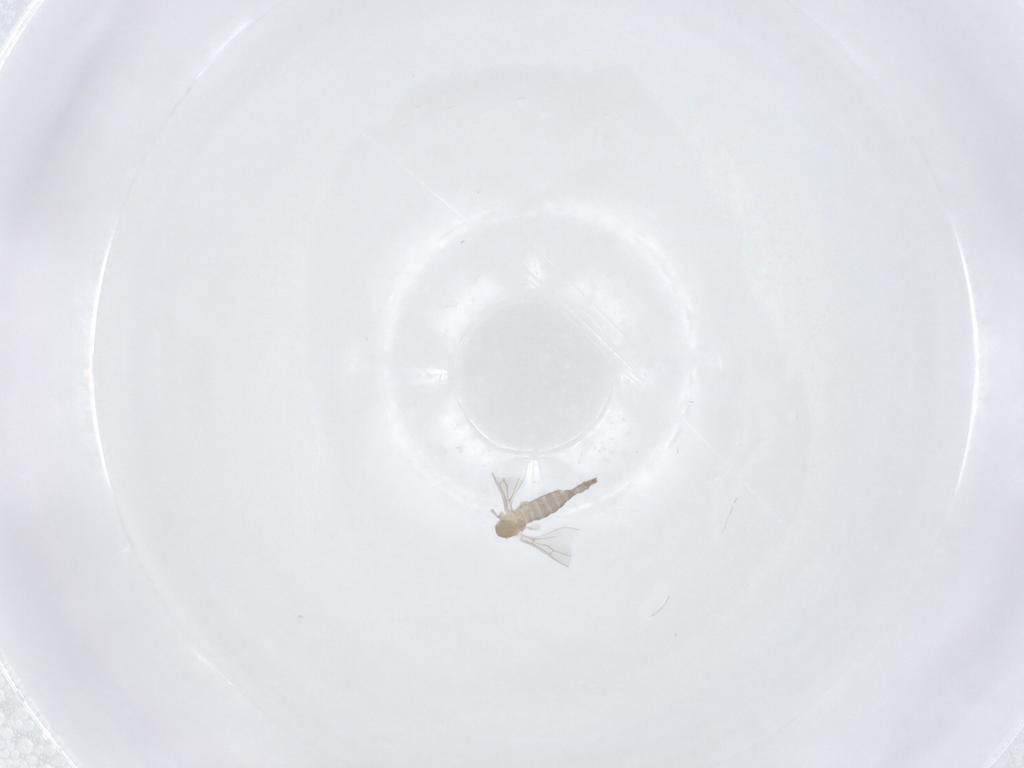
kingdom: Animalia
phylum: Arthropoda
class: Insecta
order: Diptera
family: Cecidomyiidae
